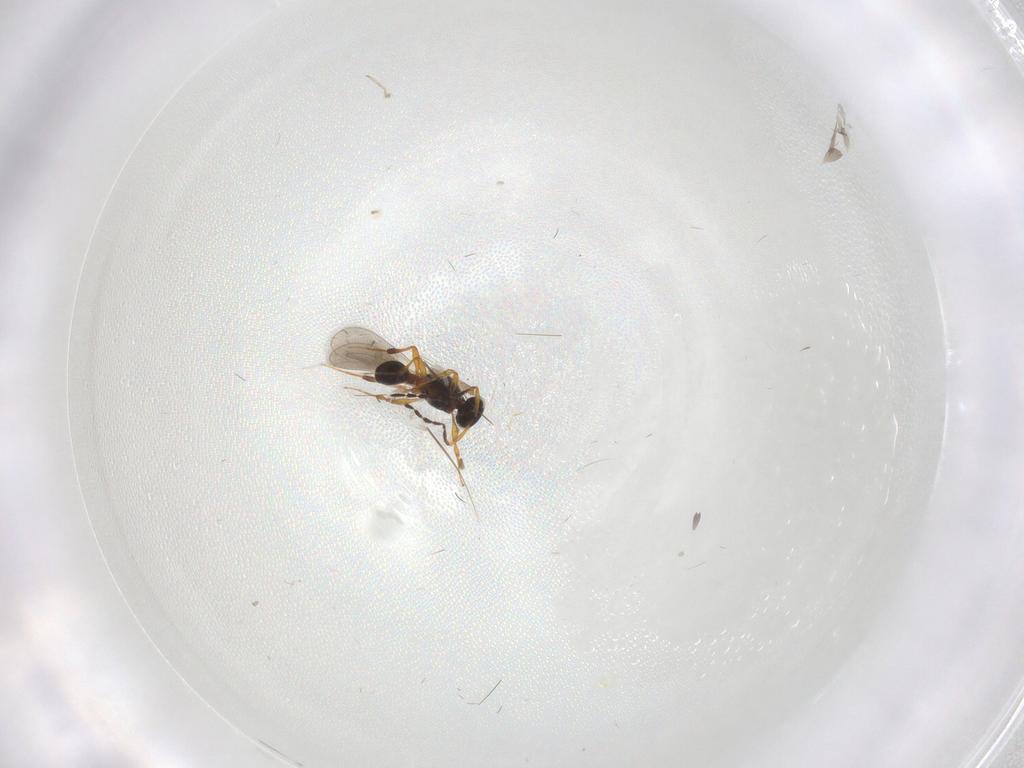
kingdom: Animalia
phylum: Arthropoda
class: Insecta
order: Hymenoptera
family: Platygastridae
